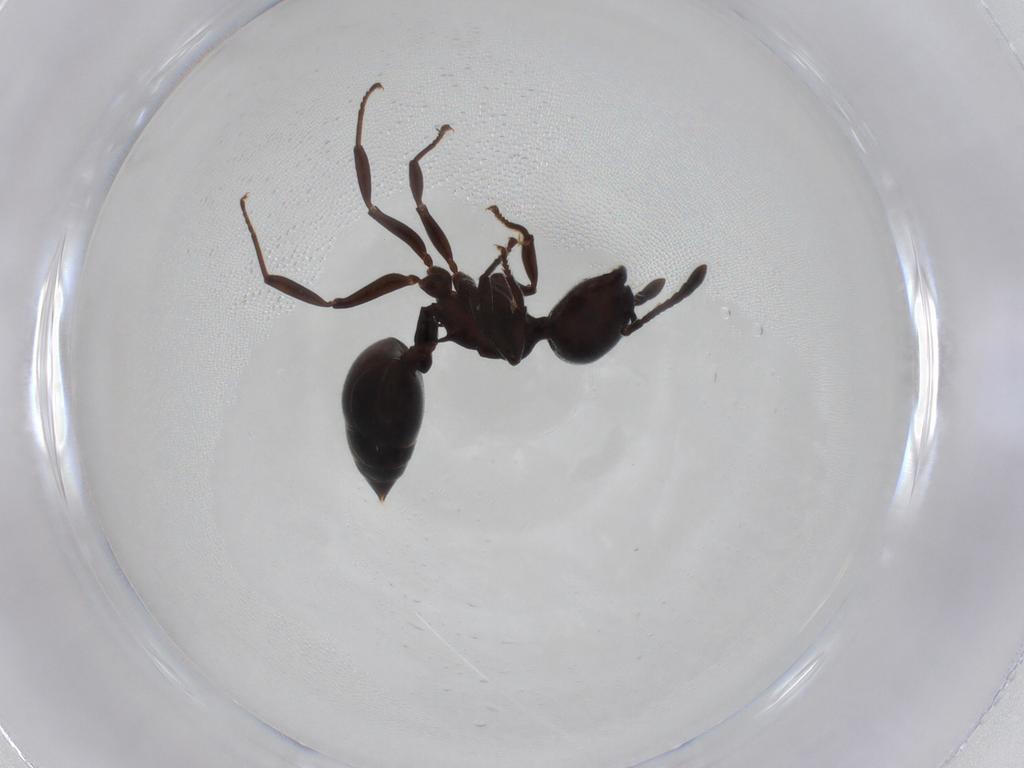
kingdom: Animalia
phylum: Arthropoda
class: Insecta
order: Hymenoptera
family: Formicidae
